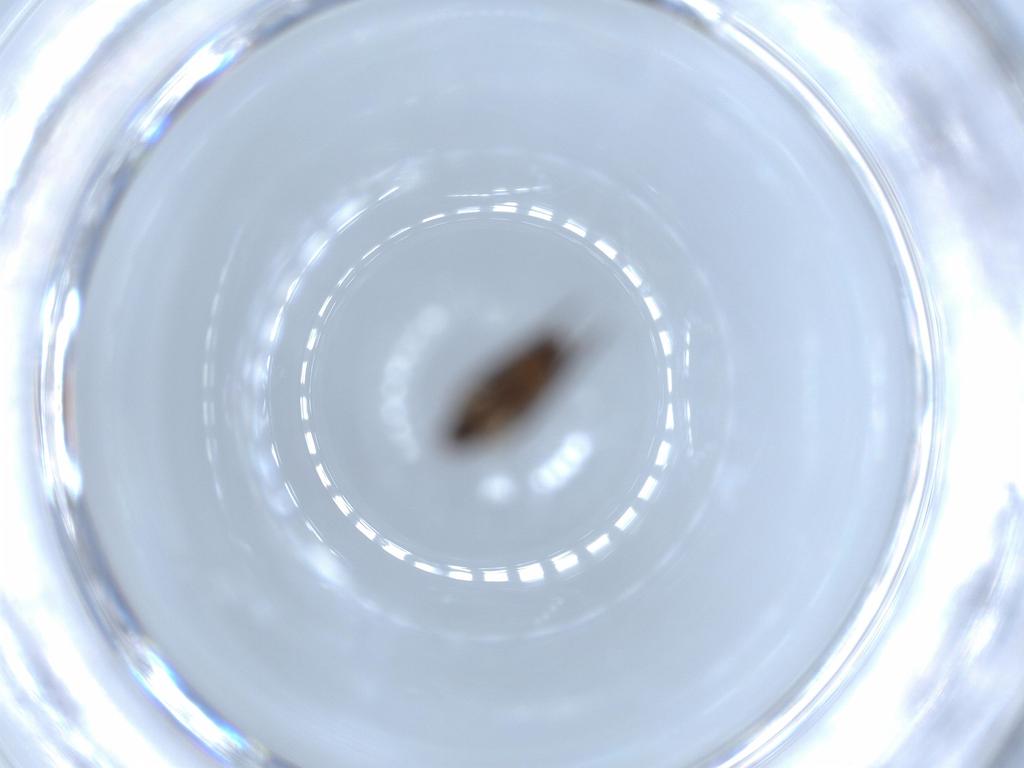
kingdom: Animalia
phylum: Arthropoda
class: Insecta
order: Diptera
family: Psychodidae
